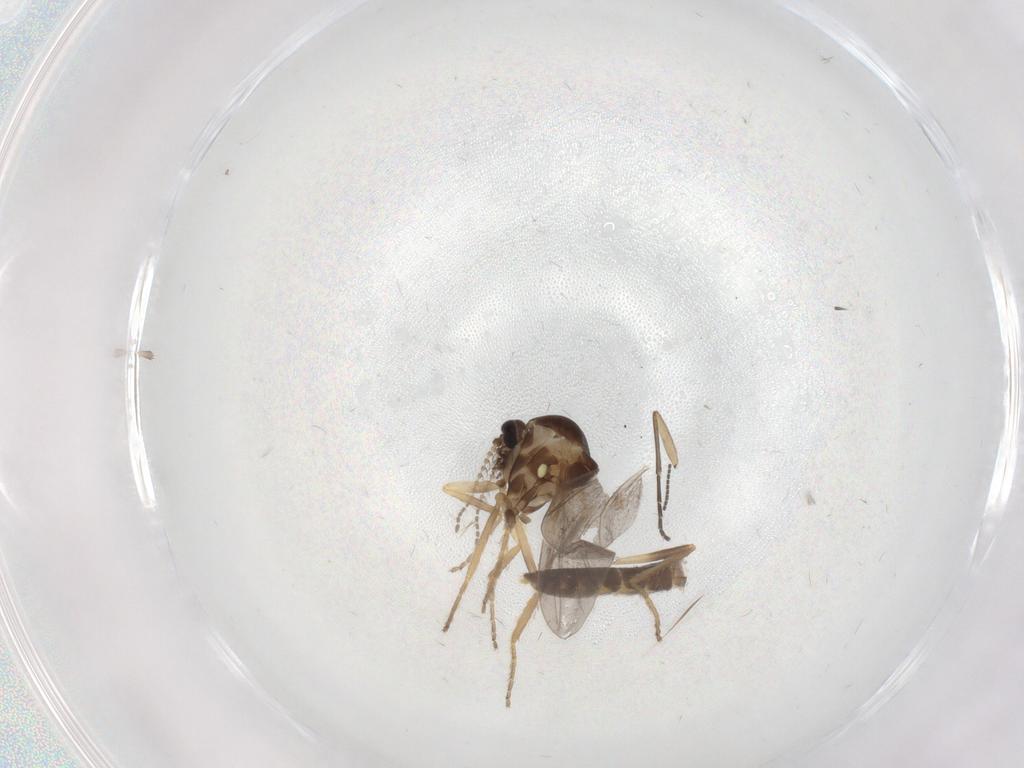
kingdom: Animalia
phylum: Arthropoda
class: Insecta
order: Diptera
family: Ceratopogonidae
